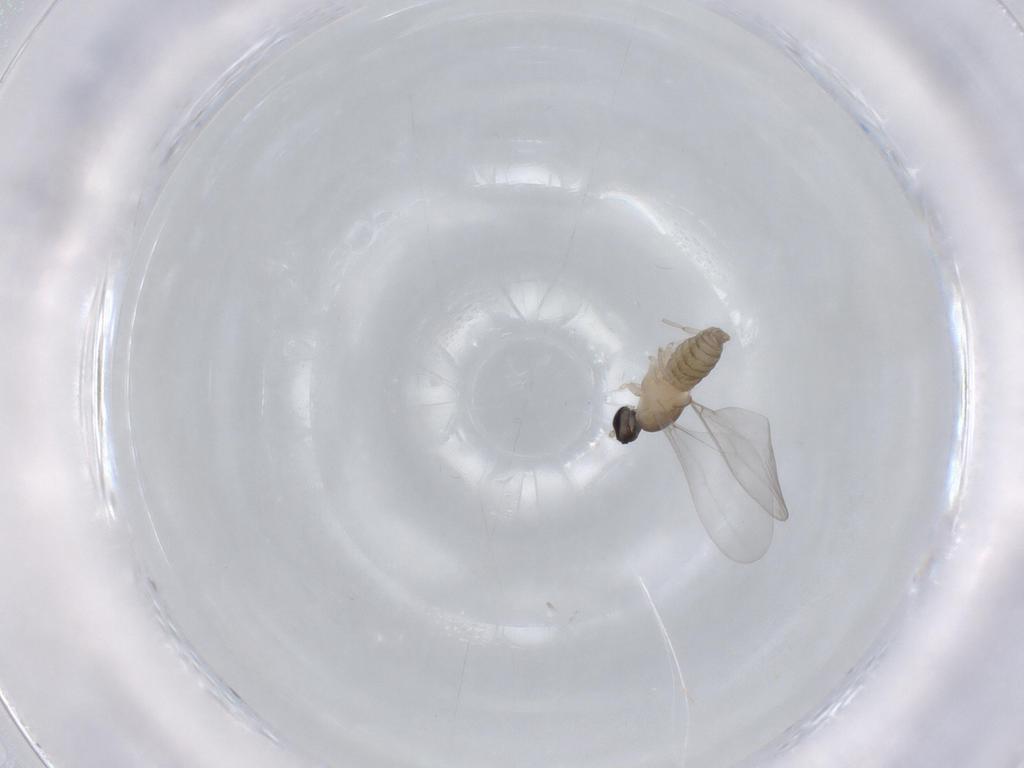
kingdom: Animalia
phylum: Arthropoda
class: Insecta
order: Diptera
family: Cecidomyiidae
